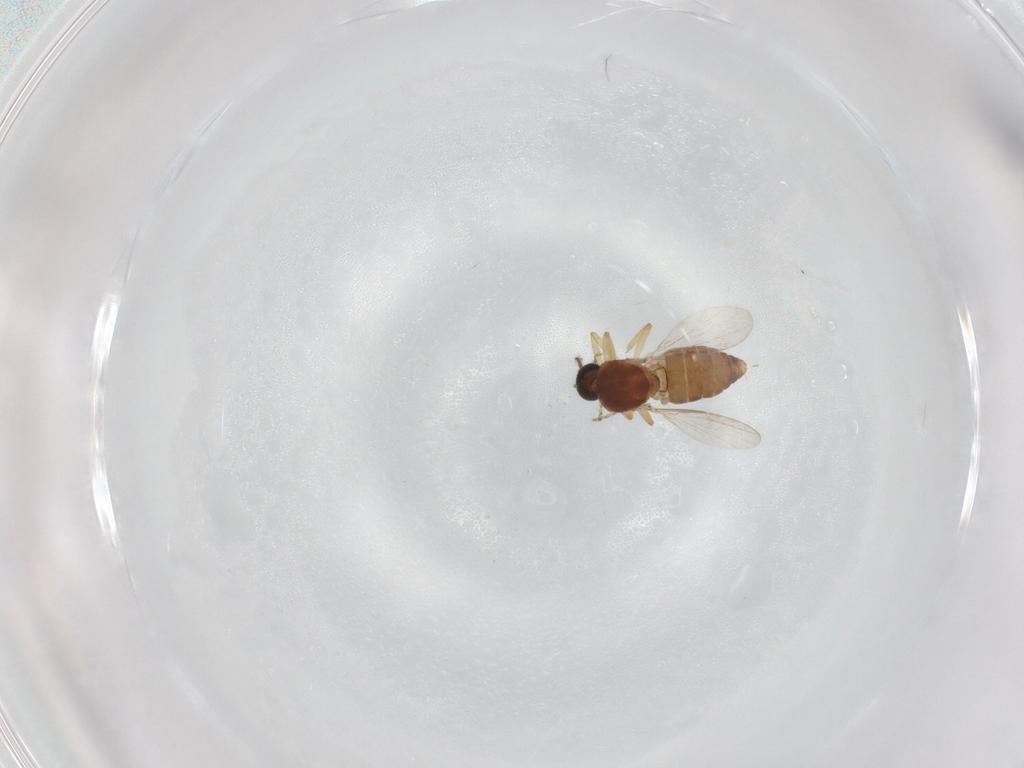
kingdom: Animalia
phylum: Arthropoda
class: Insecta
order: Diptera
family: Ceratopogonidae
